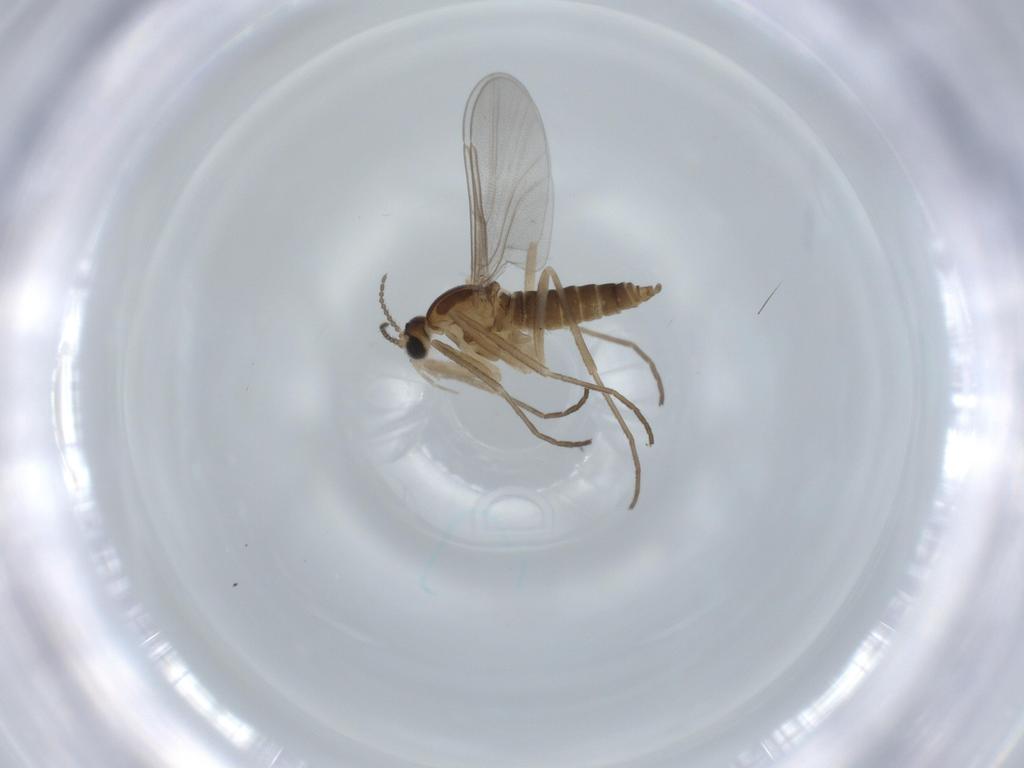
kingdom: Animalia
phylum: Arthropoda
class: Insecta
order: Diptera
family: Cecidomyiidae
